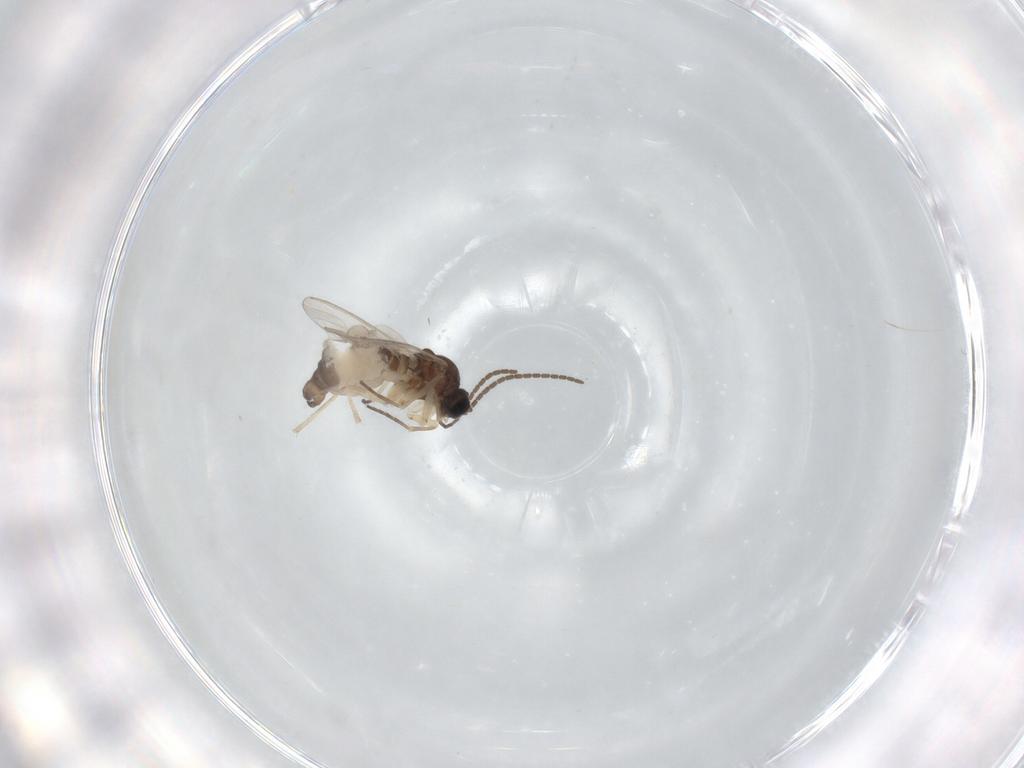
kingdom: Animalia
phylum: Arthropoda
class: Insecta
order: Diptera
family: Sciaridae
